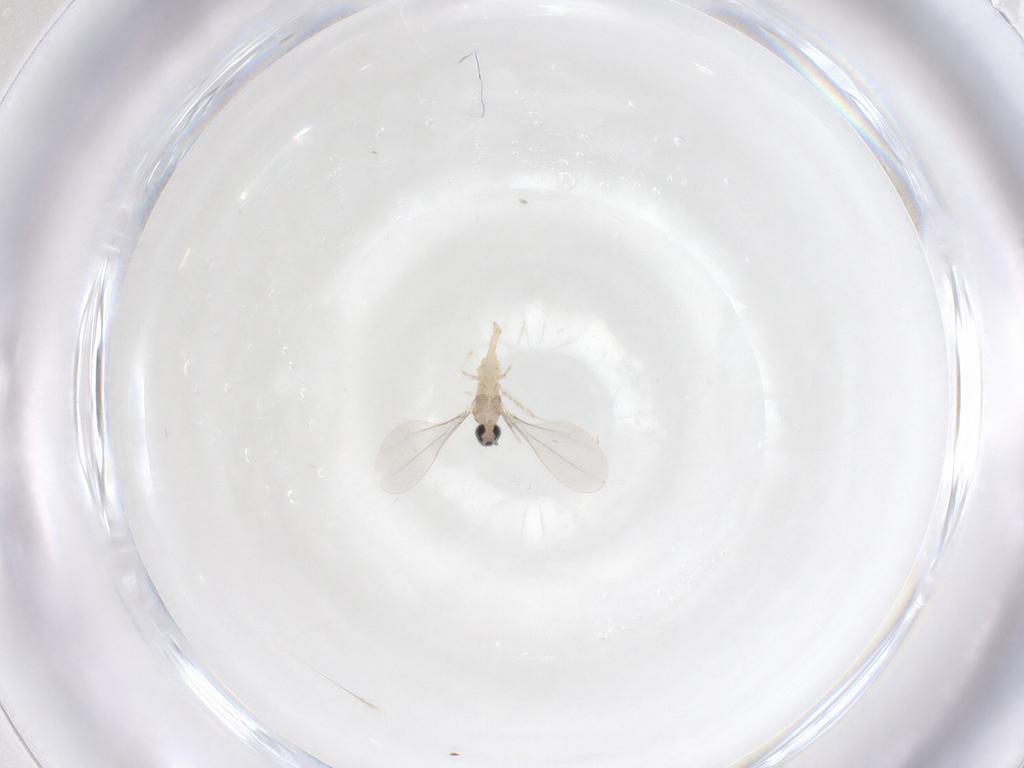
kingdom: Animalia
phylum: Arthropoda
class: Insecta
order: Diptera
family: Cecidomyiidae
